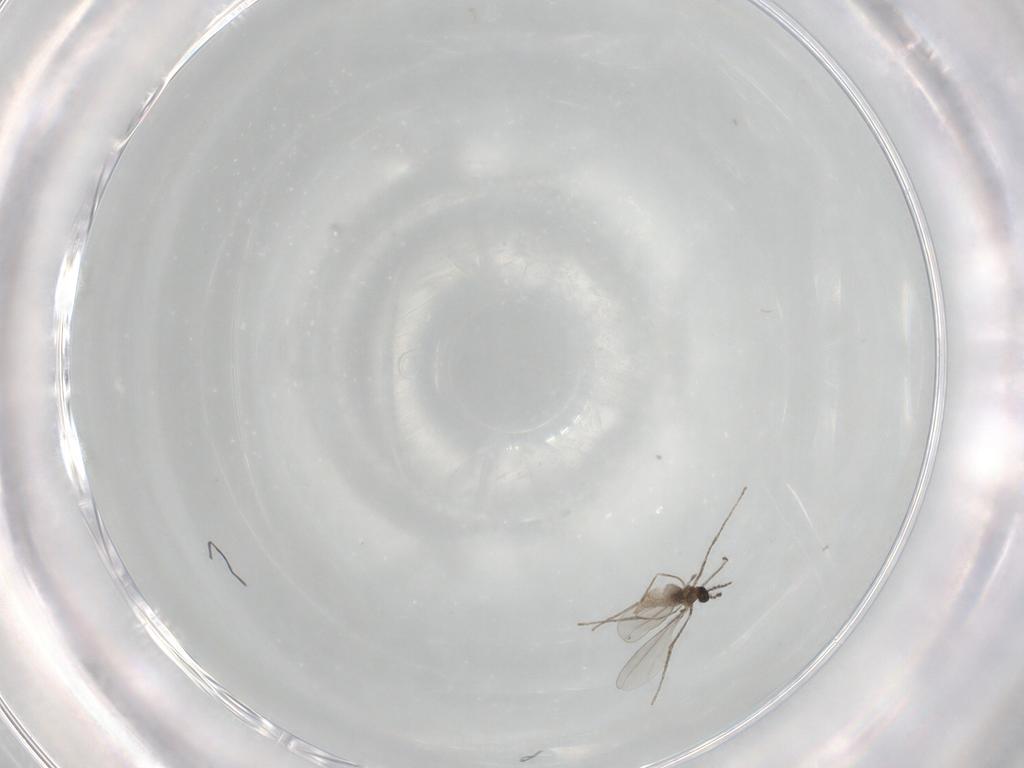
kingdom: Animalia
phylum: Arthropoda
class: Insecta
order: Diptera
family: Chironomidae
